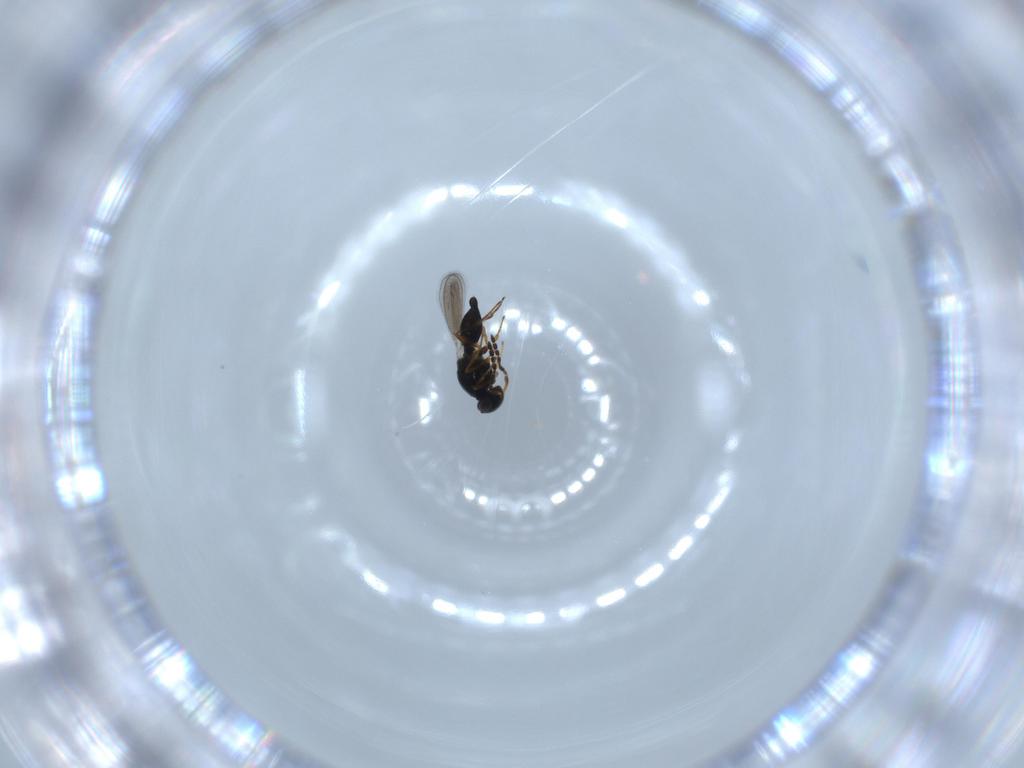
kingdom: Animalia
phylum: Arthropoda
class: Insecta
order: Hymenoptera
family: Platygastridae
